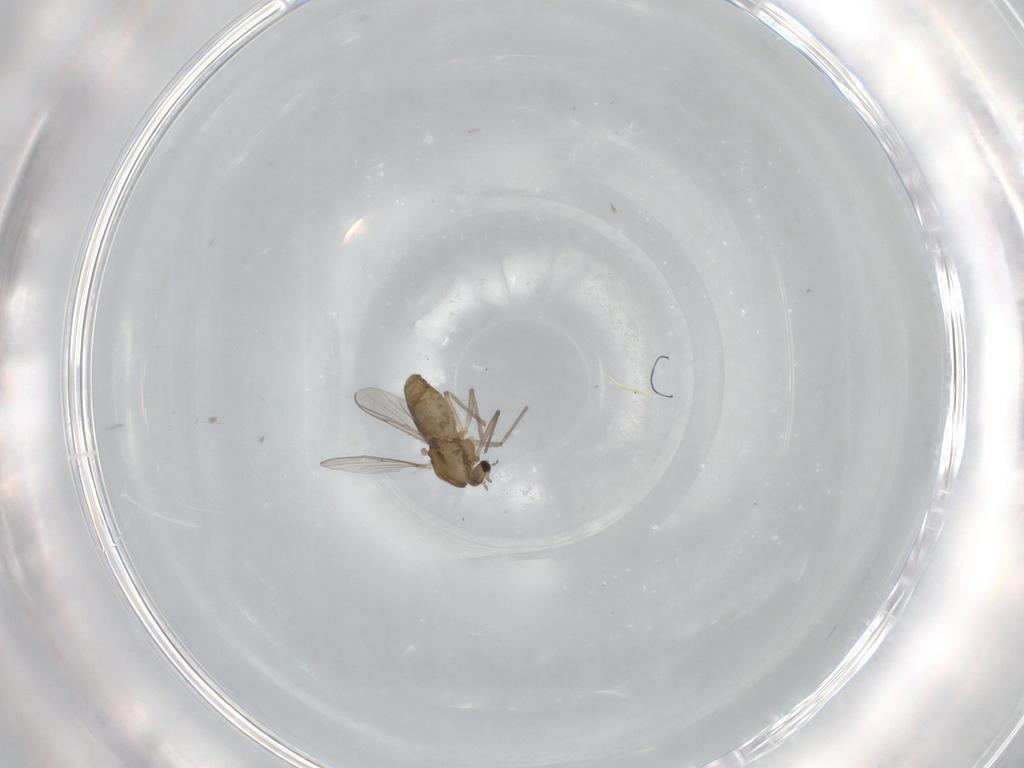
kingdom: Animalia
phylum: Arthropoda
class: Insecta
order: Diptera
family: Chironomidae
